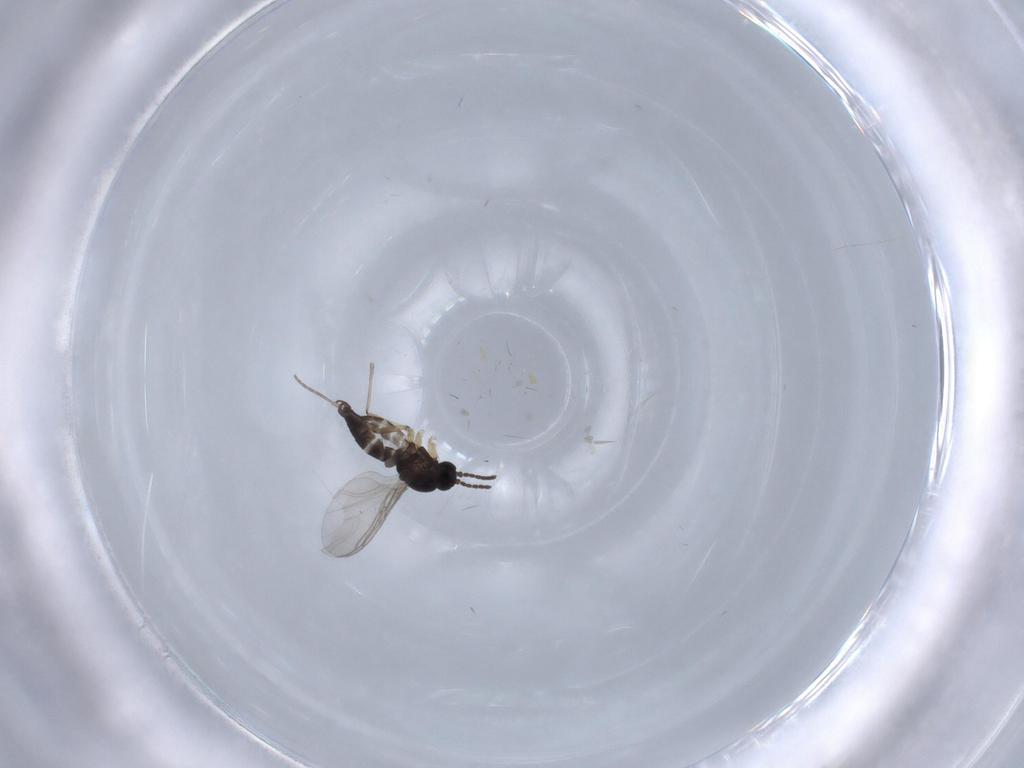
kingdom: Animalia
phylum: Arthropoda
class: Insecta
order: Diptera
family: Sciaridae
